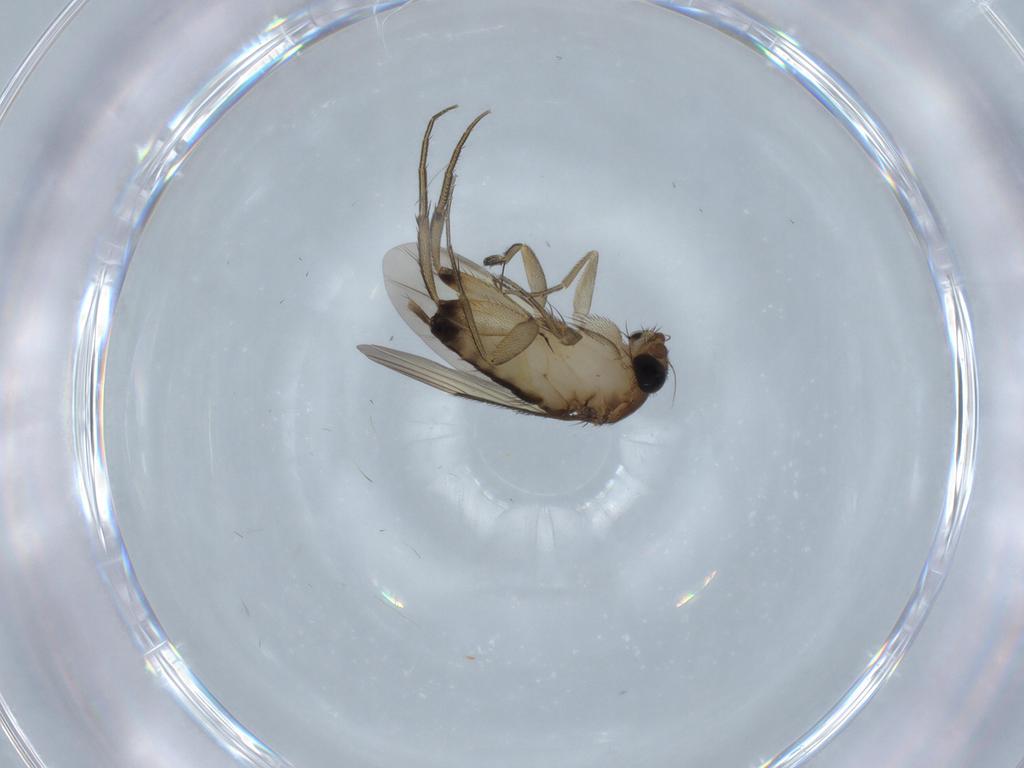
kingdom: Animalia
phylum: Arthropoda
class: Insecta
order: Diptera
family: Phoridae
